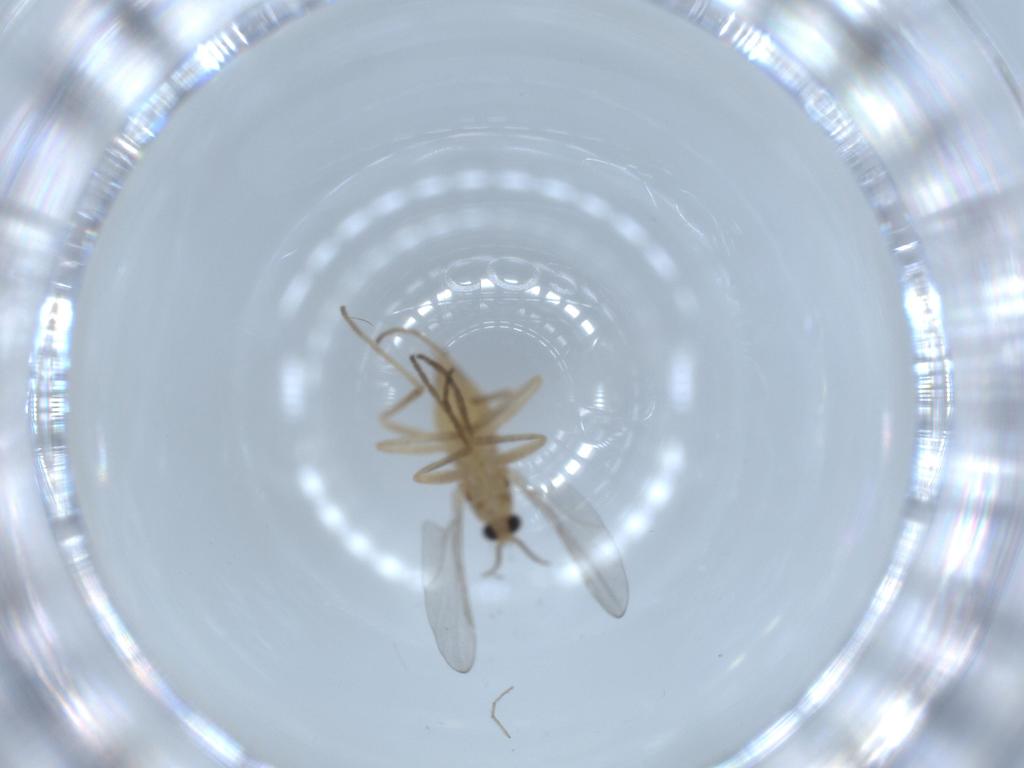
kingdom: Animalia
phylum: Arthropoda
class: Insecta
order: Diptera
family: Cecidomyiidae
